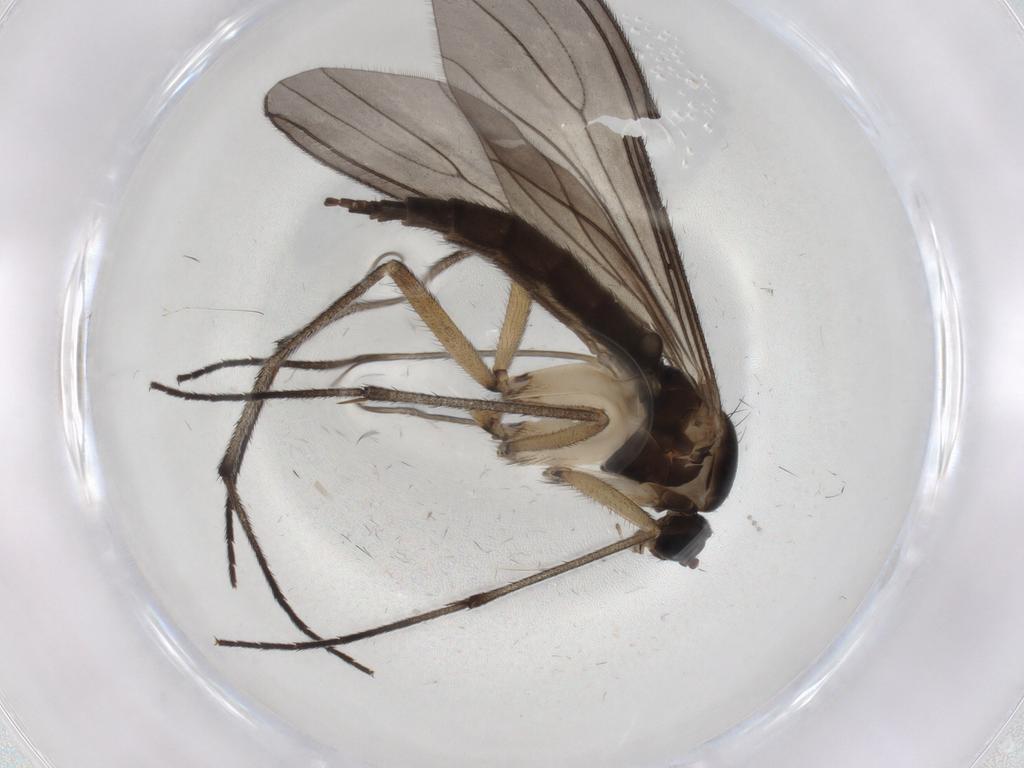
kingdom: Animalia
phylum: Arthropoda
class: Insecta
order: Diptera
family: Sciaridae
